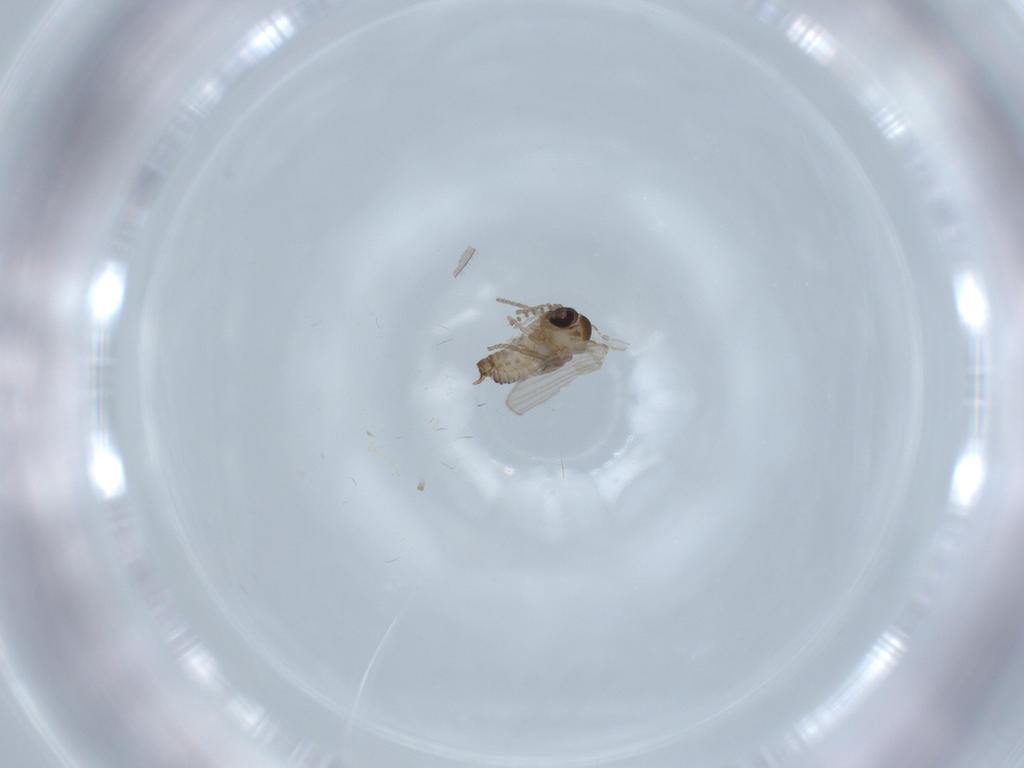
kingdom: Animalia
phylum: Arthropoda
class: Insecta
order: Diptera
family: Psychodidae
